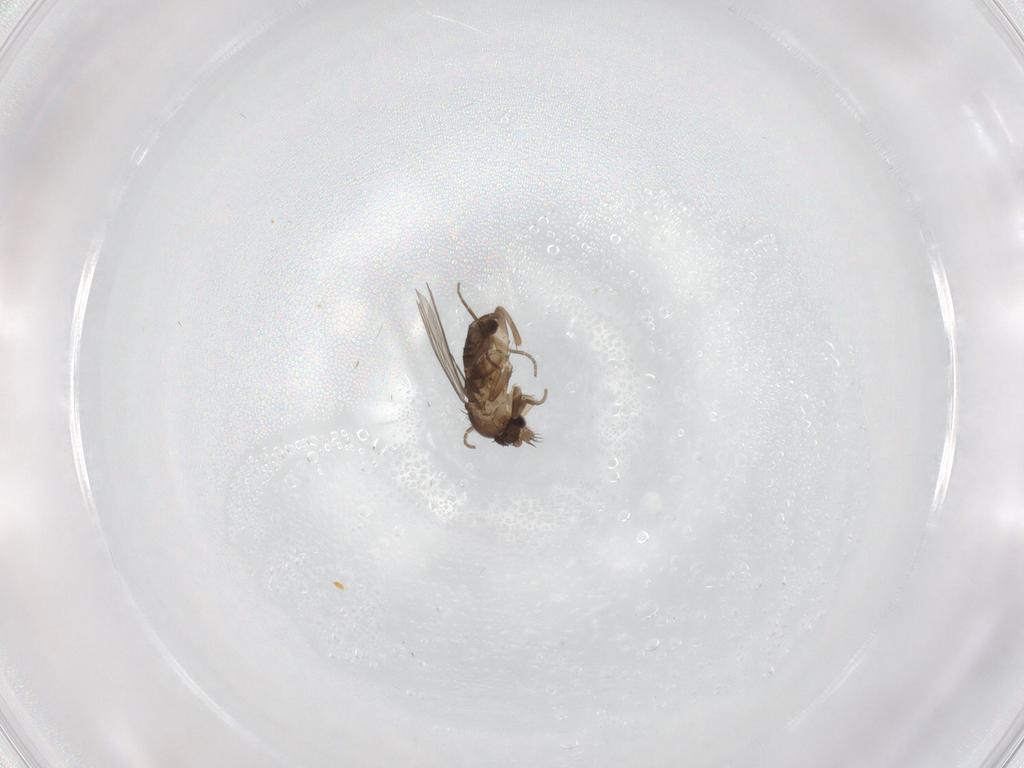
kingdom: Animalia
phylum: Arthropoda
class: Insecta
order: Diptera
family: Phoridae
